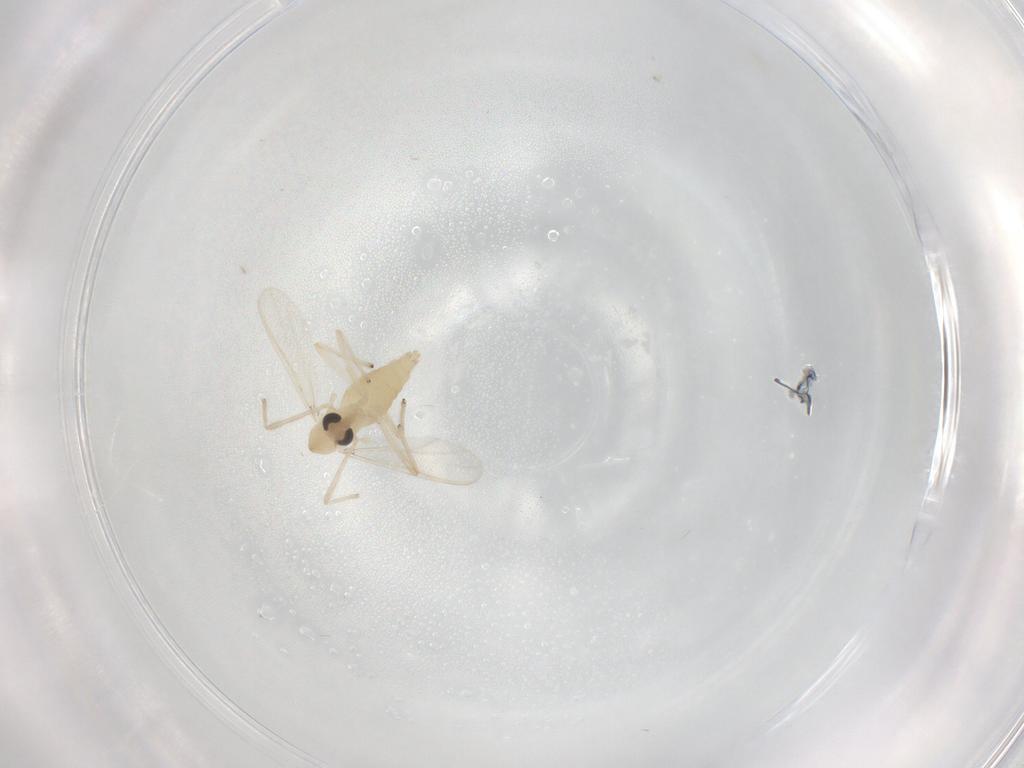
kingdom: Animalia
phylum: Arthropoda
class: Insecta
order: Diptera
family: Chironomidae
